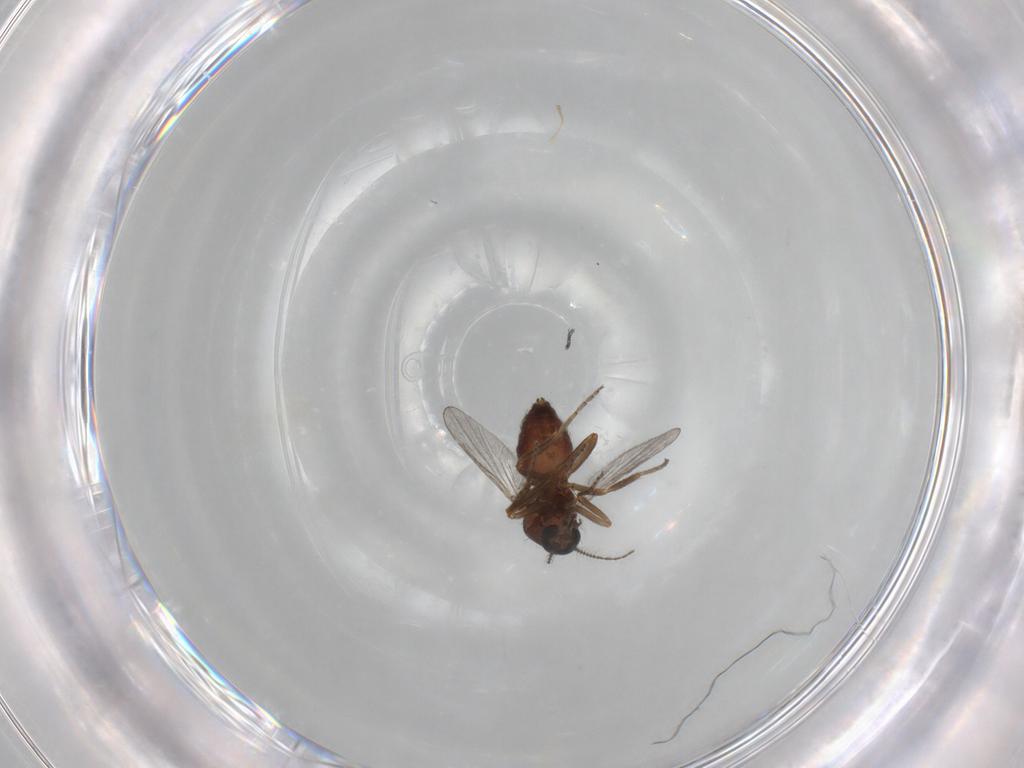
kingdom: Animalia
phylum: Arthropoda
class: Insecta
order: Diptera
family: Ceratopogonidae
